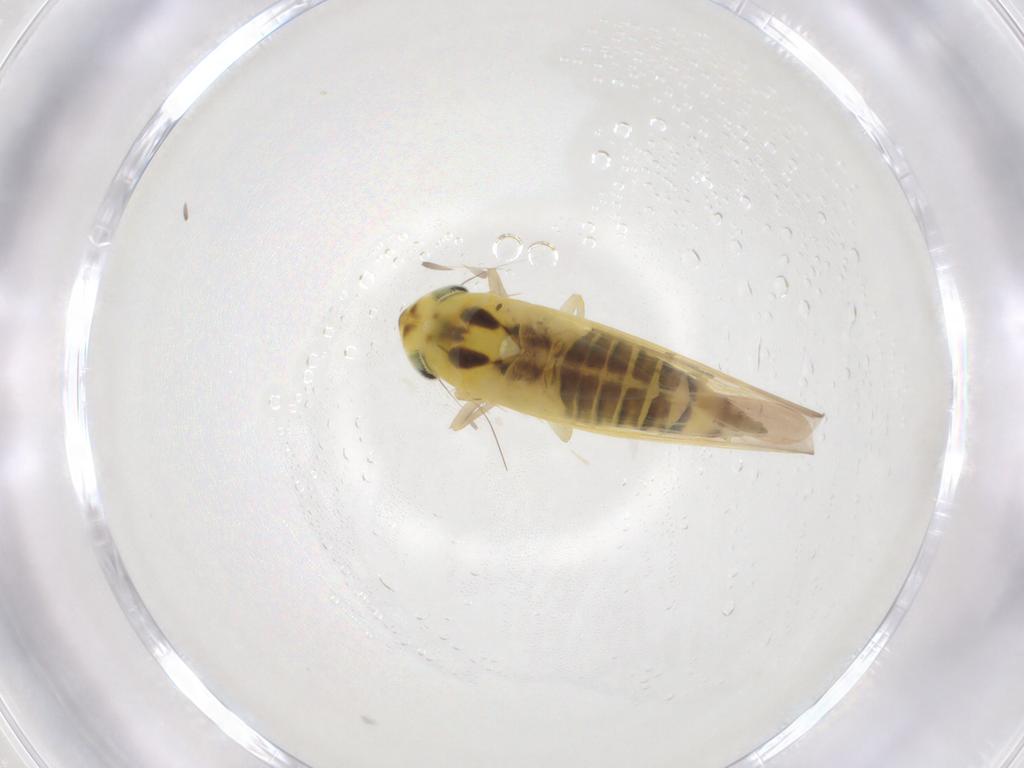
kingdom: Animalia
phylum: Arthropoda
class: Insecta
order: Hemiptera
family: Cicadellidae
